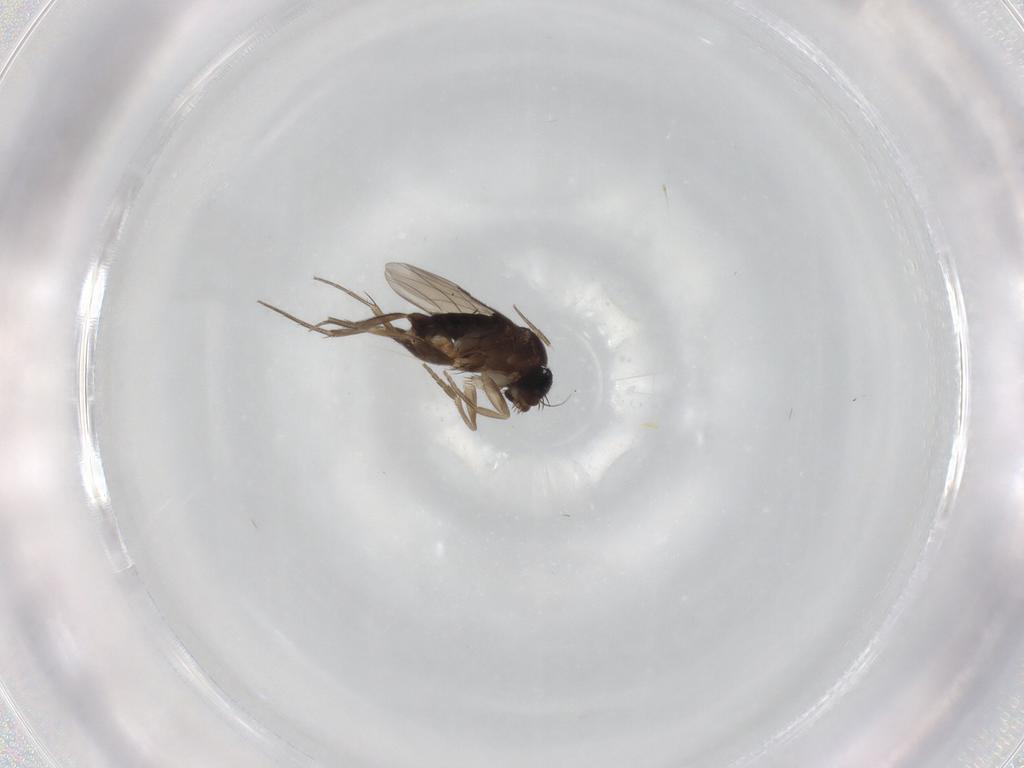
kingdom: Animalia
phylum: Arthropoda
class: Insecta
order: Diptera
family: Phoridae
